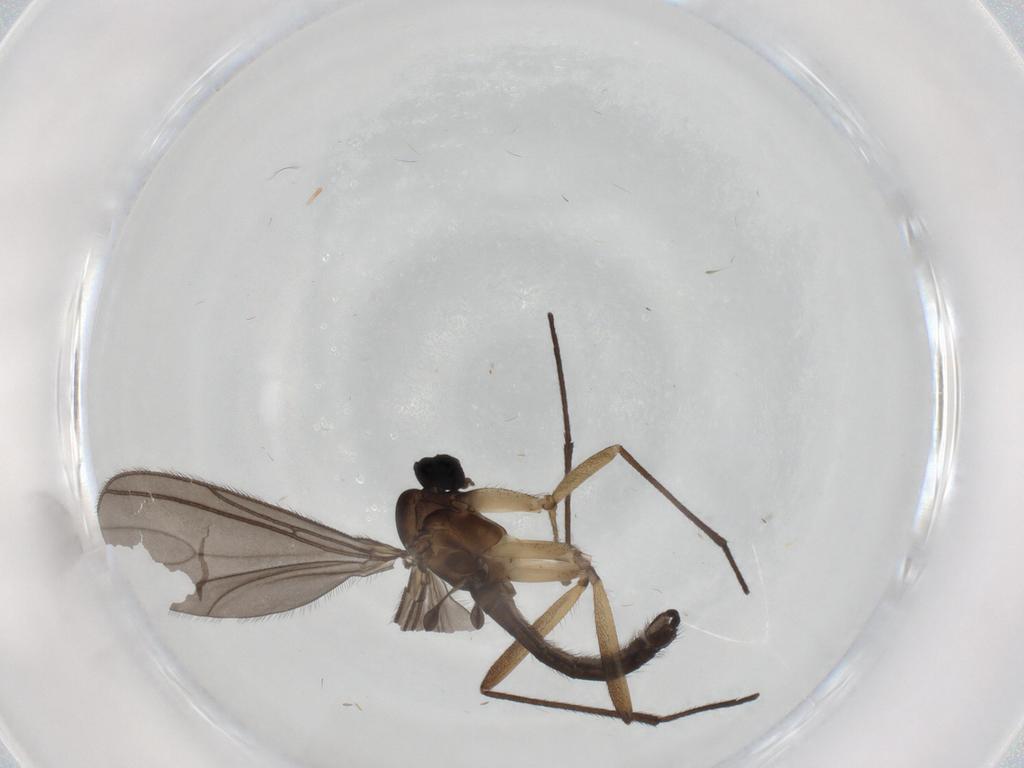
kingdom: Animalia
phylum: Arthropoda
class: Insecta
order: Diptera
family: Sciaridae
